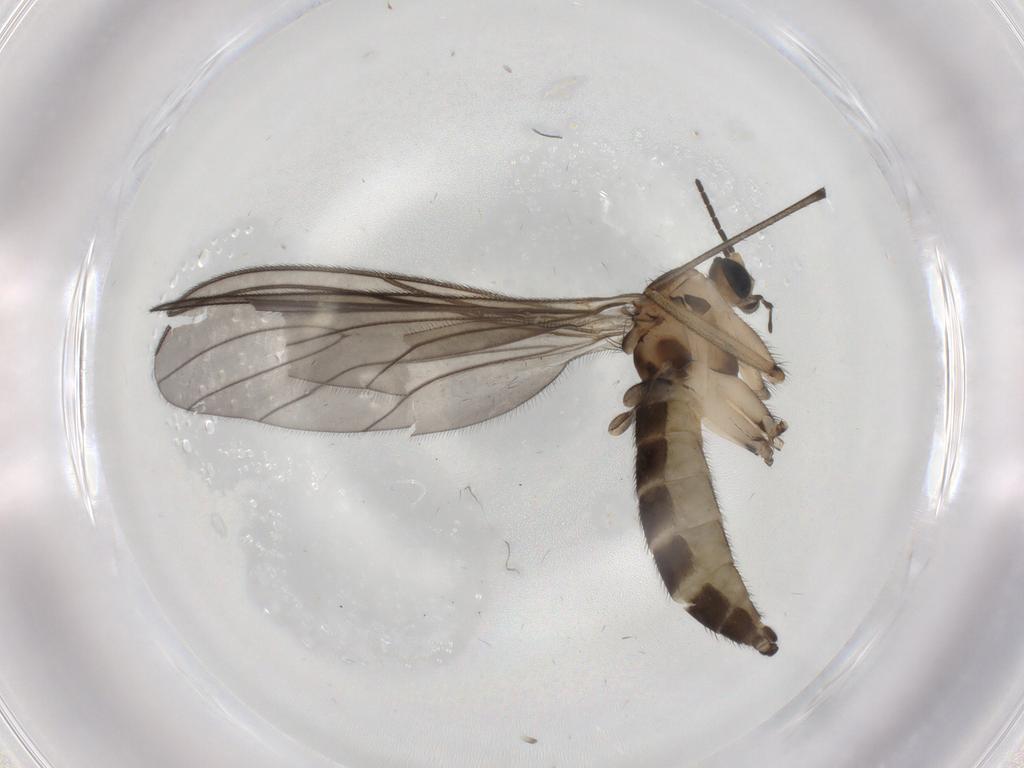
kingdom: Animalia
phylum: Arthropoda
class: Insecta
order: Diptera
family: Sciaridae
